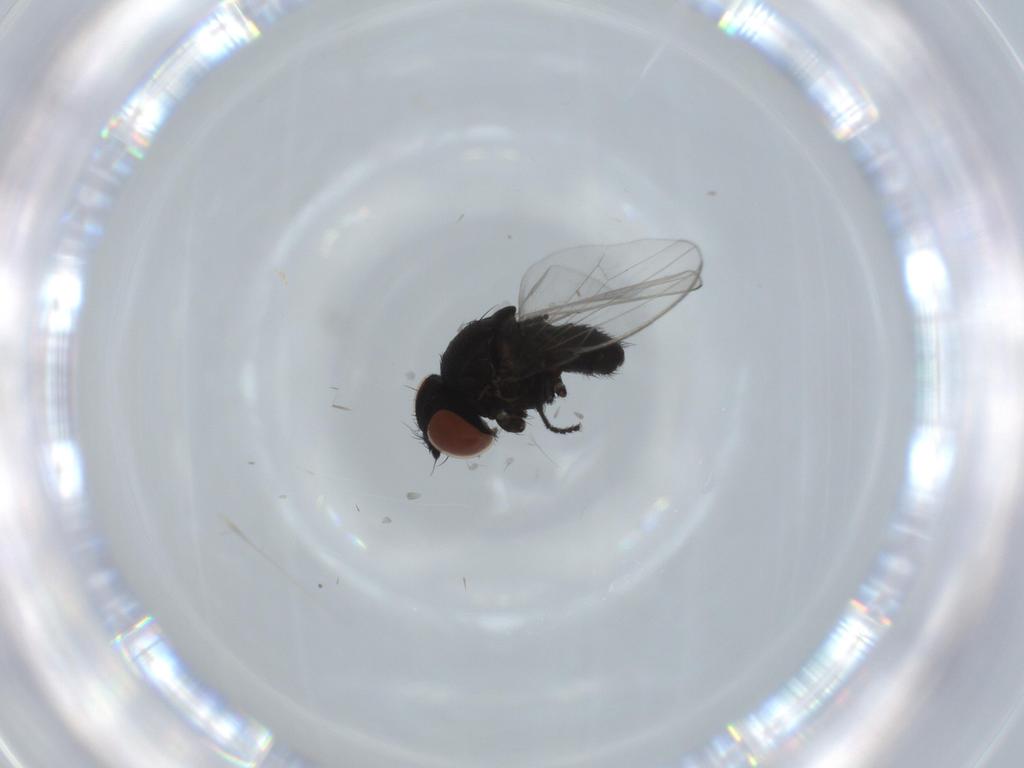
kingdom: Animalia
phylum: Arthropoda
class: Insecta
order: Diptera
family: Milichiidae
